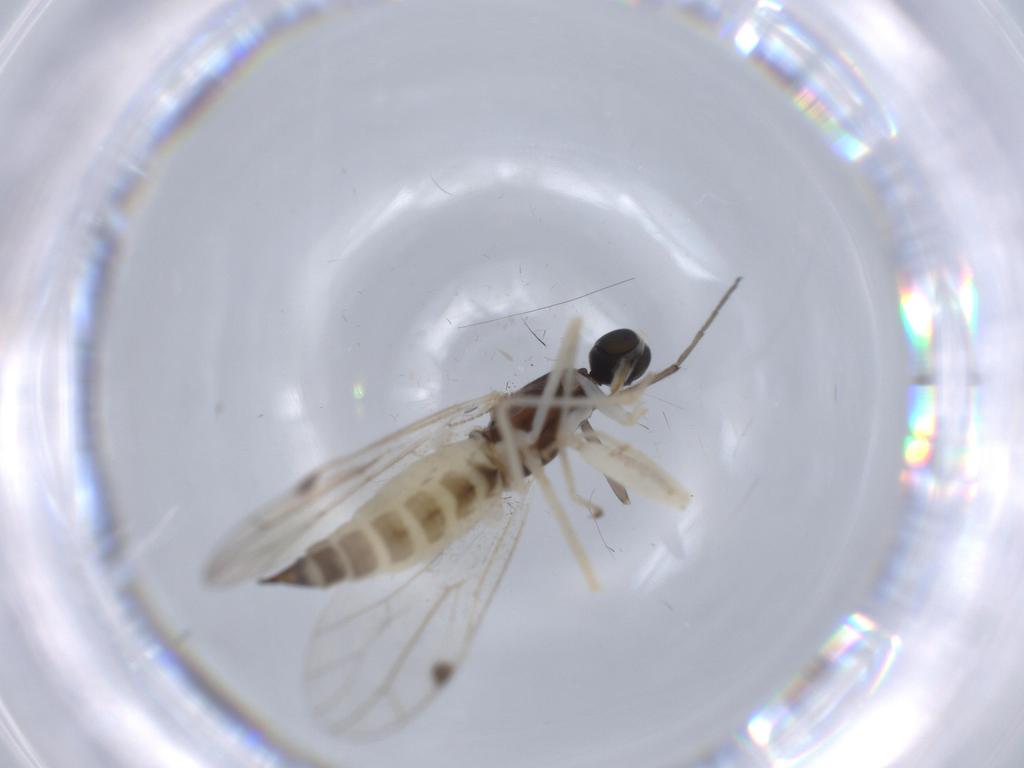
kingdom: Animalia
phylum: Arthropoda
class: Insecta
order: Diptera
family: Chironomidae
